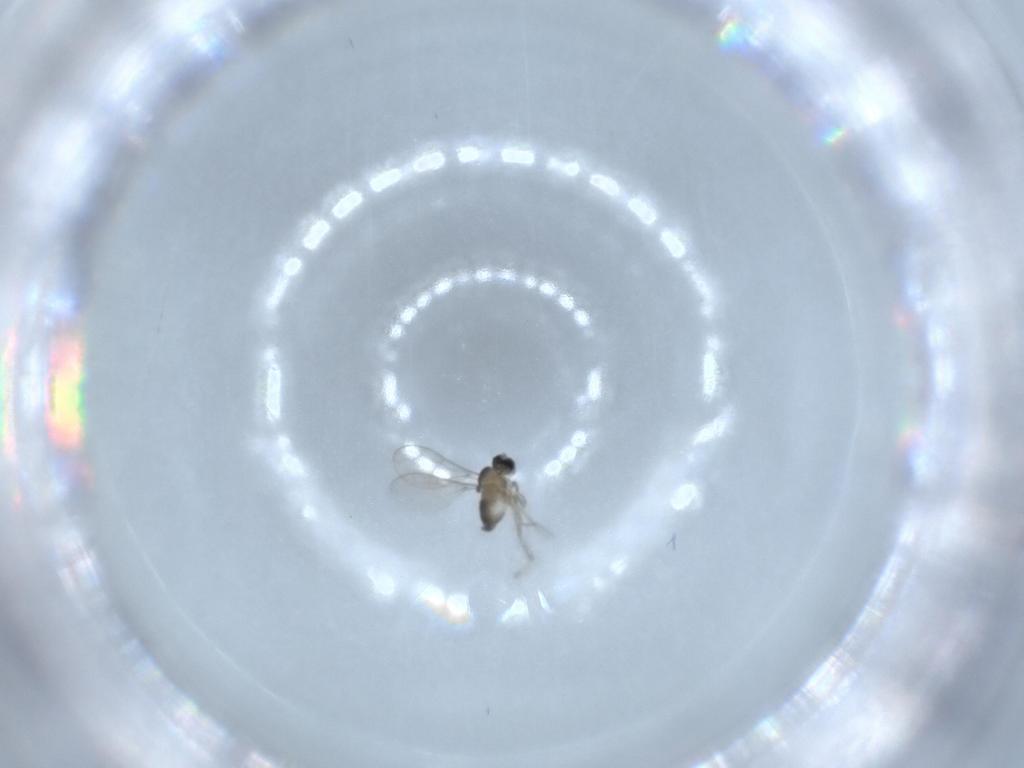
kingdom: Animalia
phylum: Arthropoda
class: Insecta
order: Diptera
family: Cecidomyiidae
